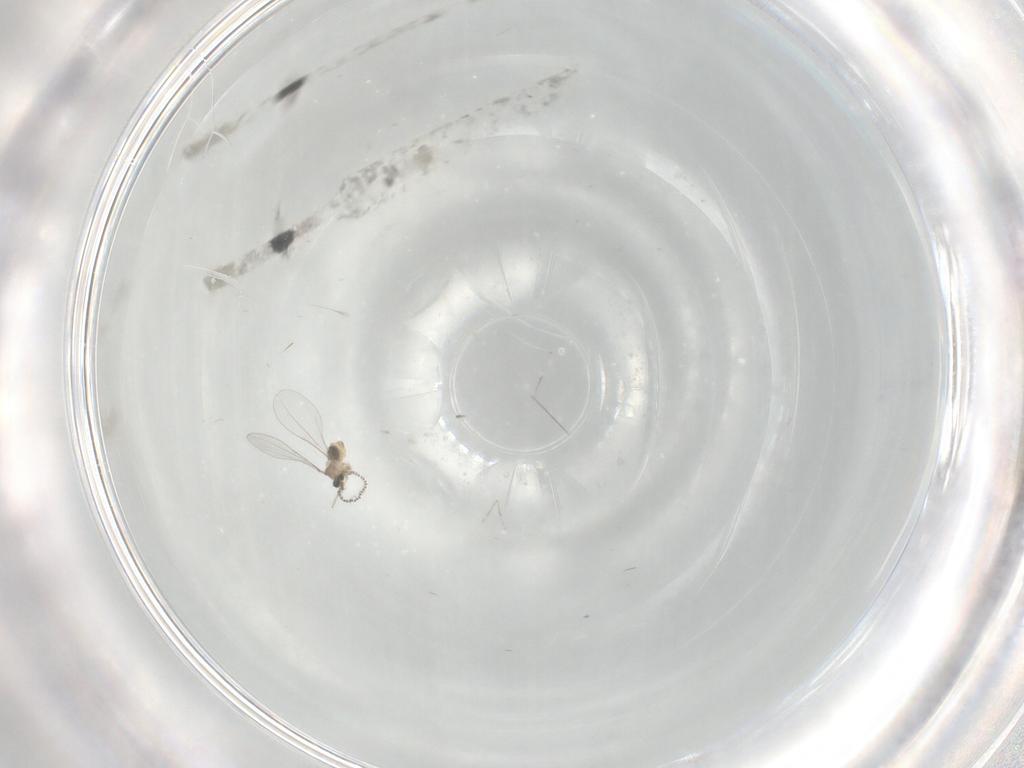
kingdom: Animalia
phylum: Arthropoda
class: Insecta
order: Diptera
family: Cecidomyiidae
